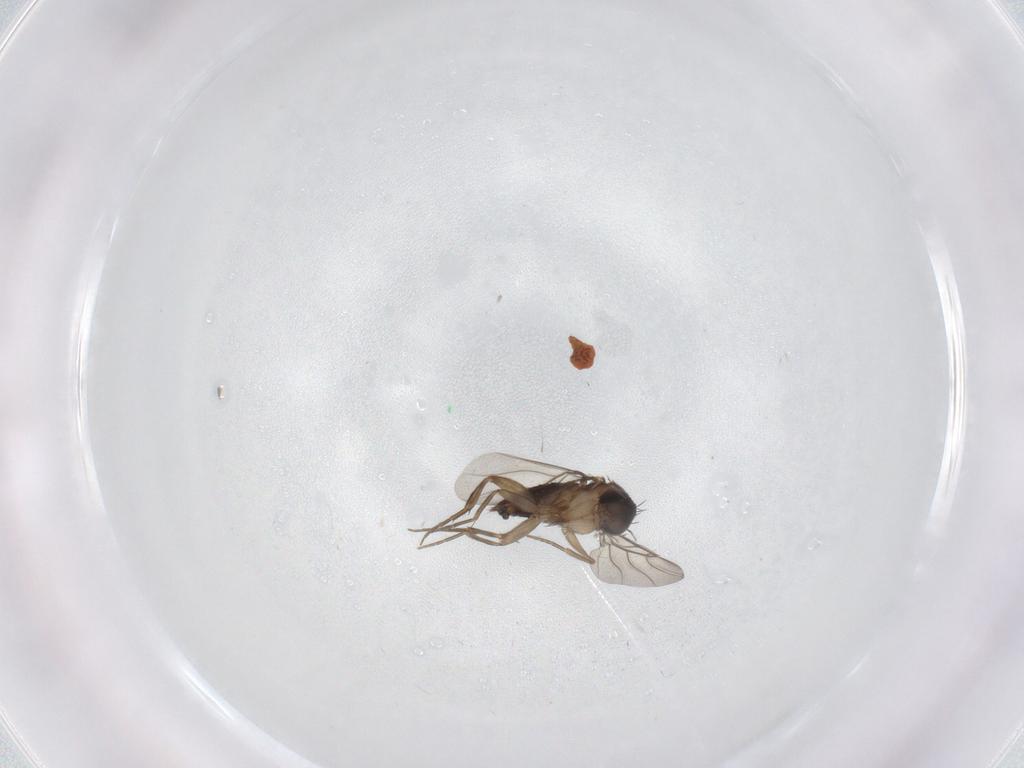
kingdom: Animalia
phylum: Arthropoda
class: Insecta
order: Diptera
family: Phoridae
